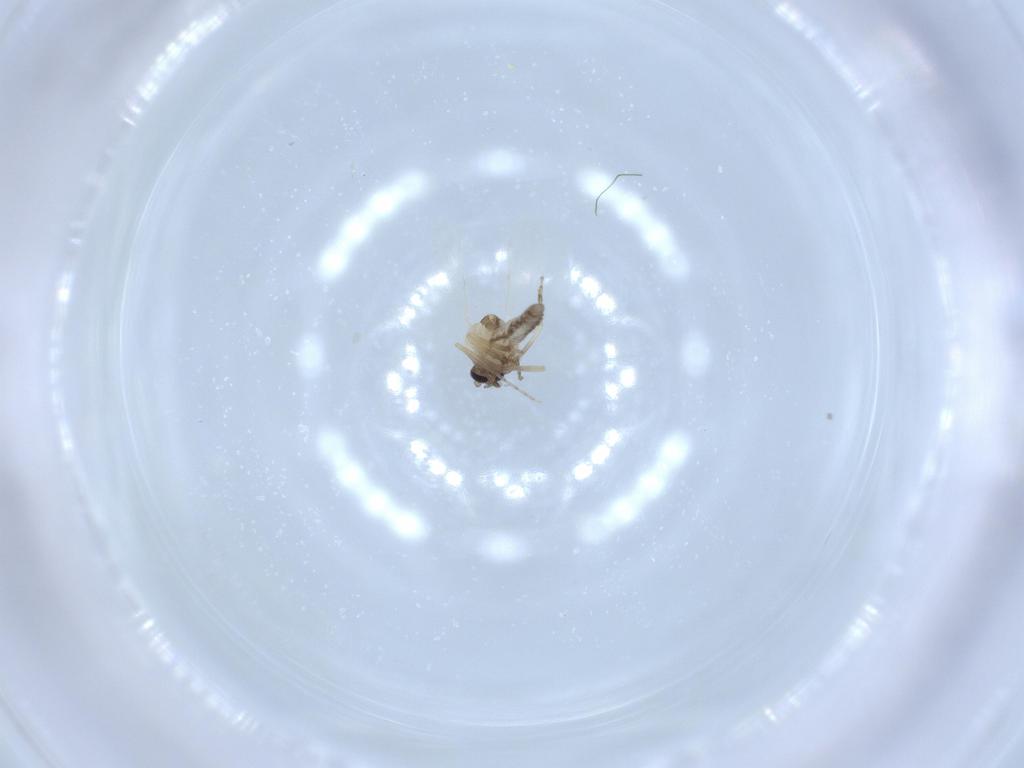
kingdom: Animalia
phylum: Arthropoda
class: Insecta
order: Diptera
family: Ceratopogonidae
